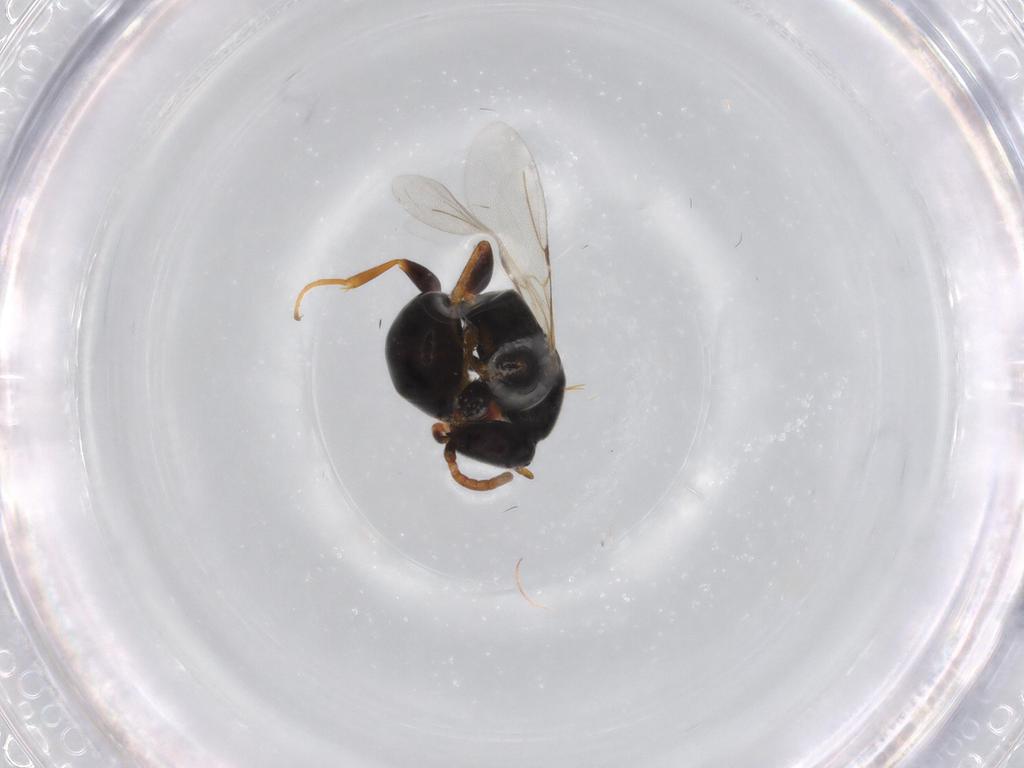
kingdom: Animalia
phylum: Arthropoda
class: Insecta
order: Hymenoptera
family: Bethylidae
